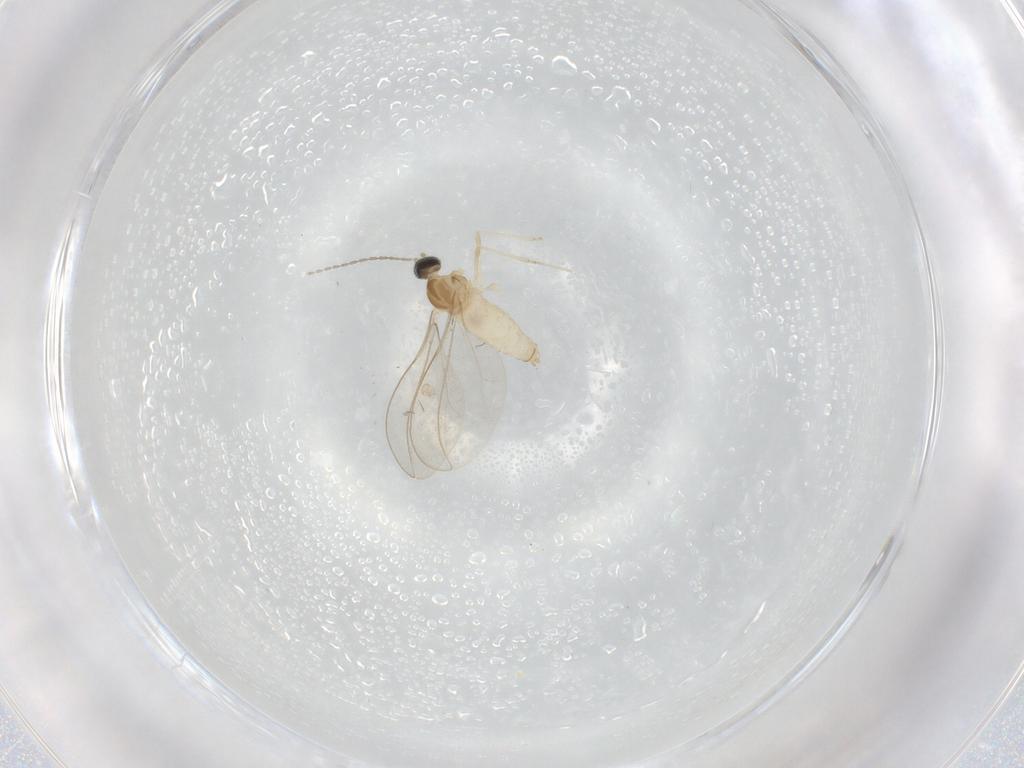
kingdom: Animalia
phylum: Arthropoda
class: Insecta
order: Diptera
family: Cecidomyiidae
